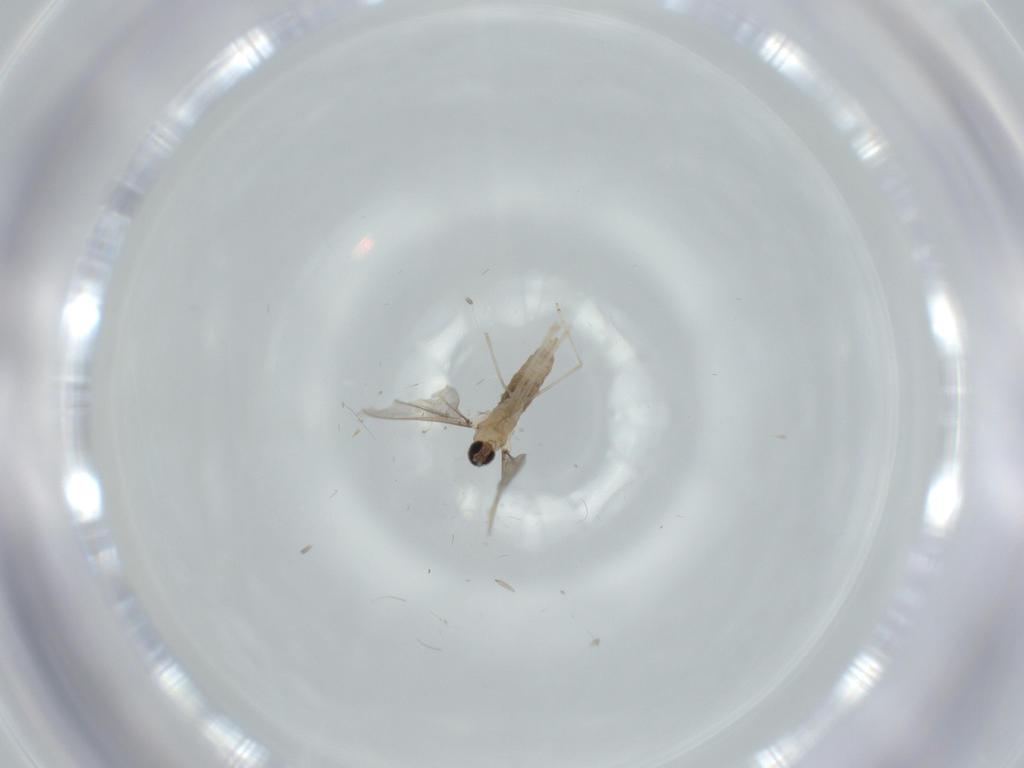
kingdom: Animalia
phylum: Arthropoda
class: Insecta
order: Diptera
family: Cecidomyiidae
